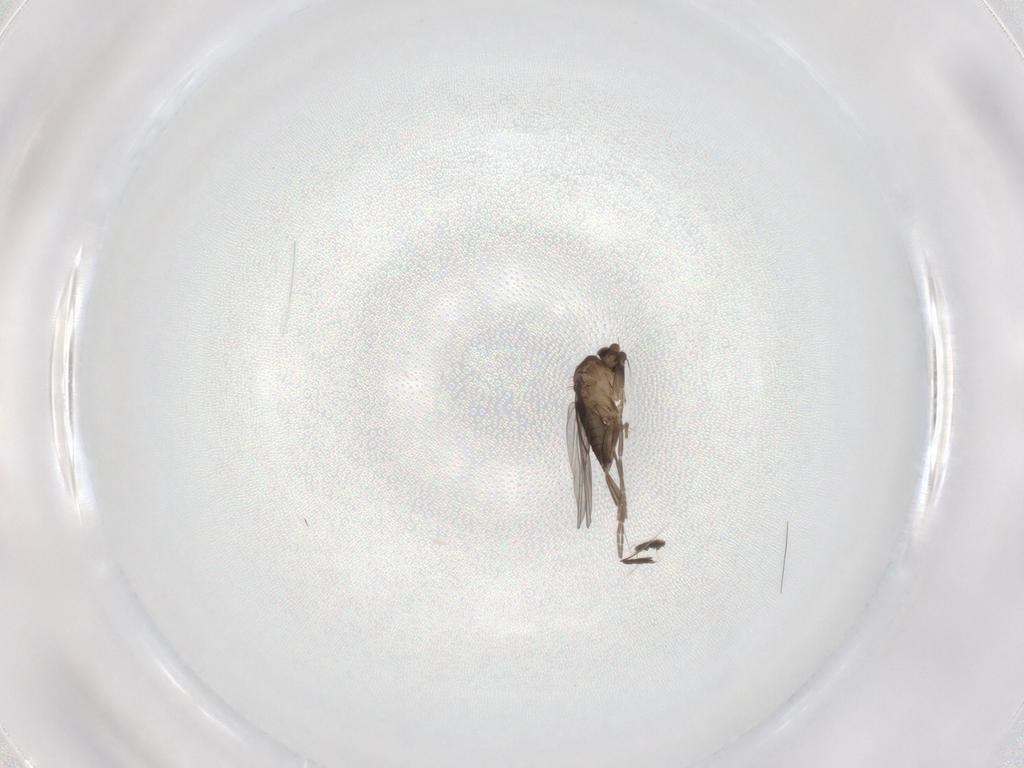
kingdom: Animalia
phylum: Arthropoda
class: Insecta
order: Diptera
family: Phoridae
